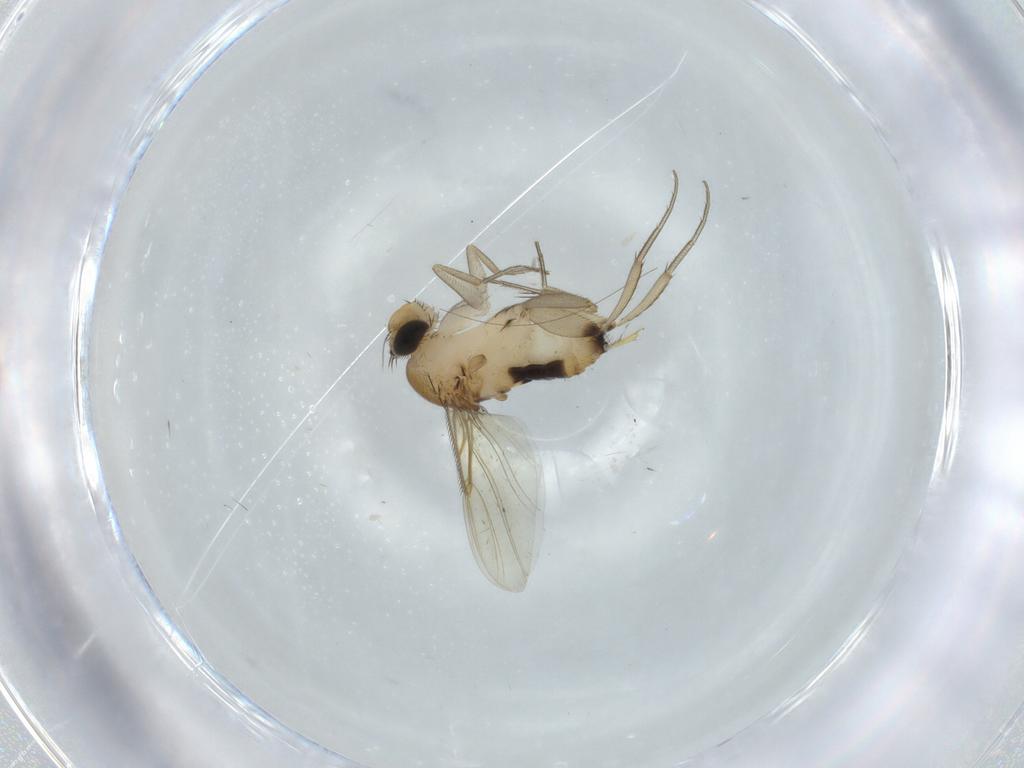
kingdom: Animalia
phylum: Arthropoda
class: Insecta
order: Diptera
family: Phoridae
